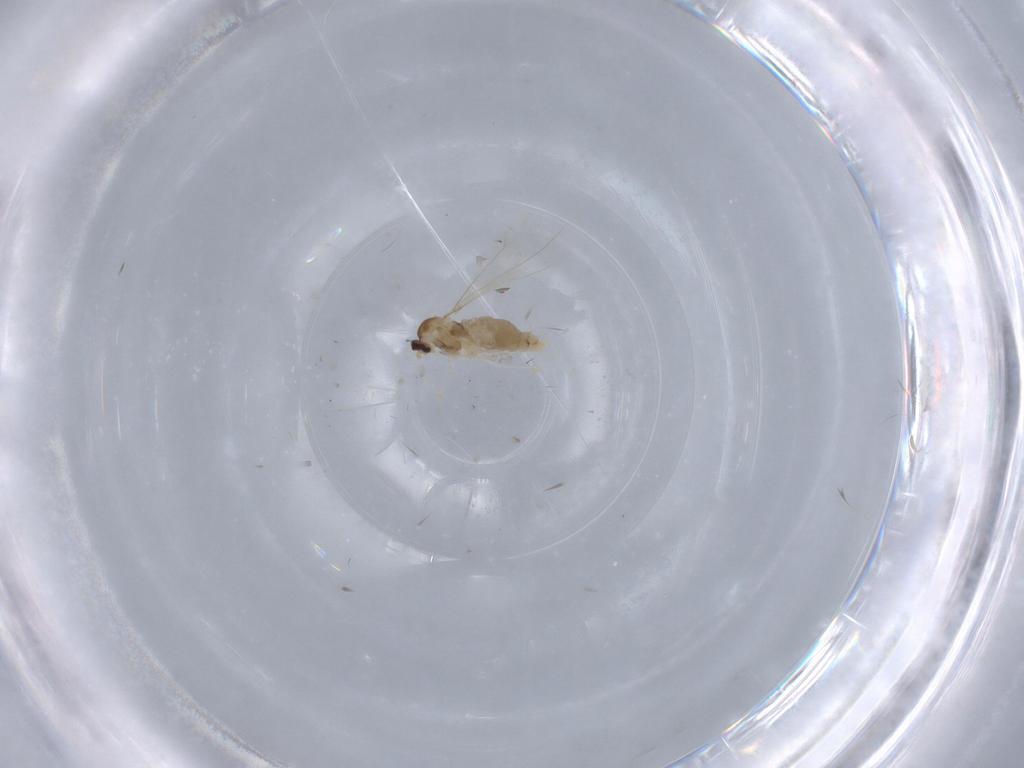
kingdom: Animalia
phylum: Arthropoda
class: Insecta
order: Diptera
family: Cecidomyiidae
